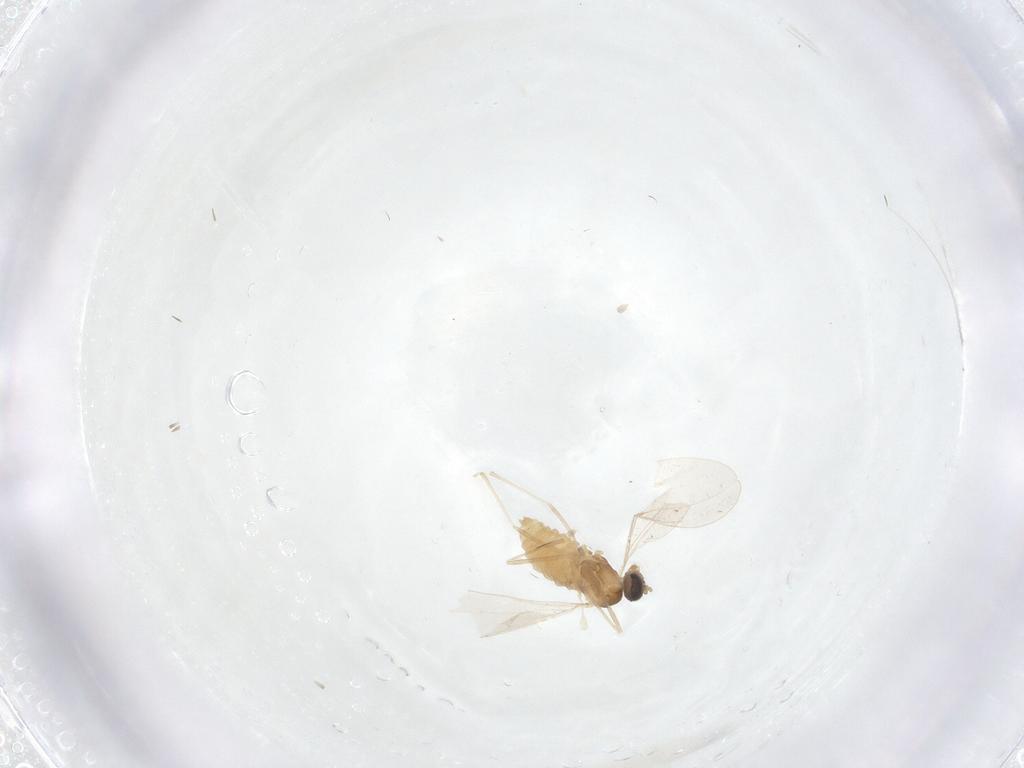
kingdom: Animalia
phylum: Arthropoda
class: Insecta
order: Diptera
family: Cecidomyiidae
